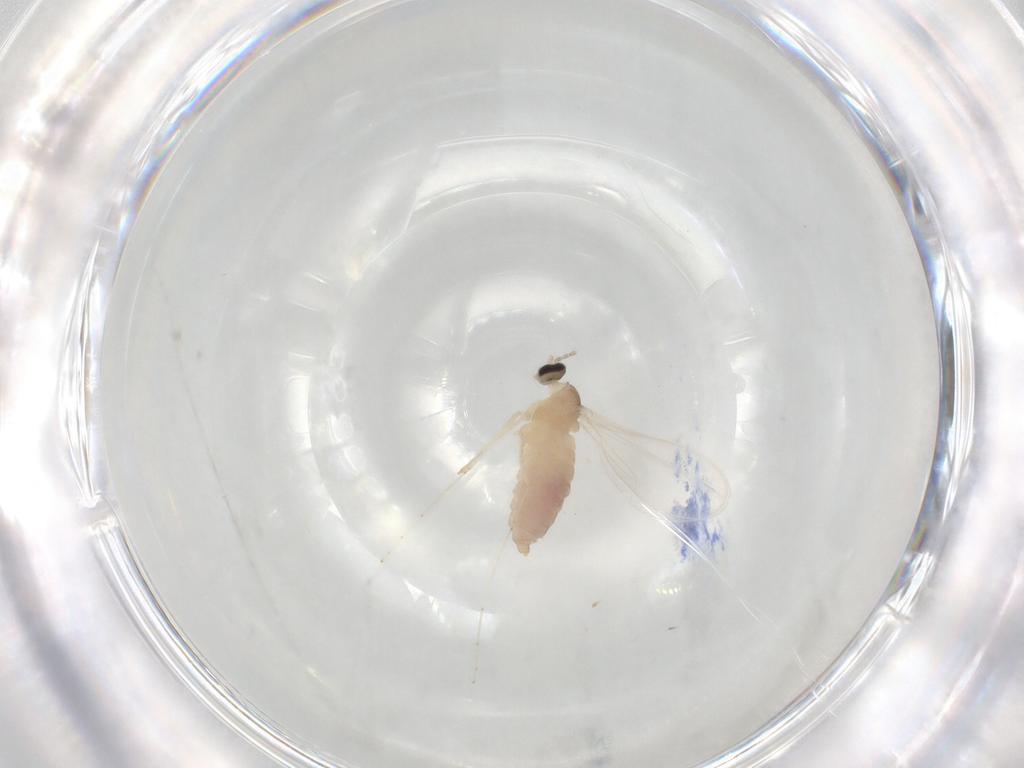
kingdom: Animalia
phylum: Arthropoda
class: Insecta
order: Diptera
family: Cecidomyiidae
